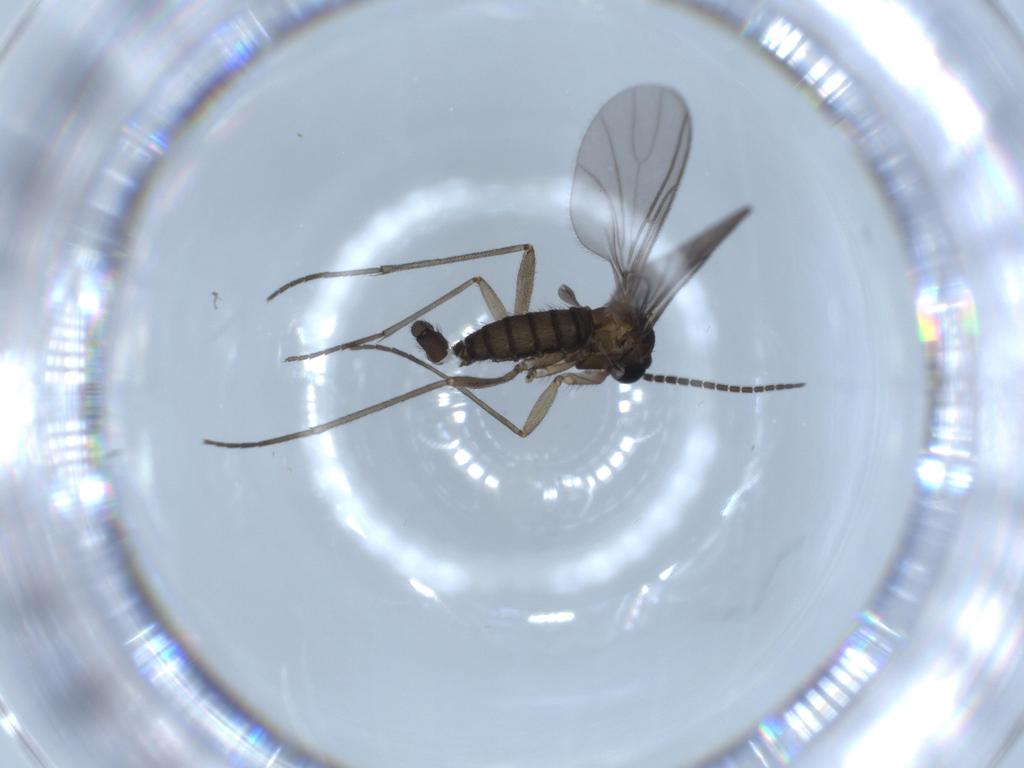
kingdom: Animalia
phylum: Arthropoda
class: Insecta
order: Diptera
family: Sciaridae
